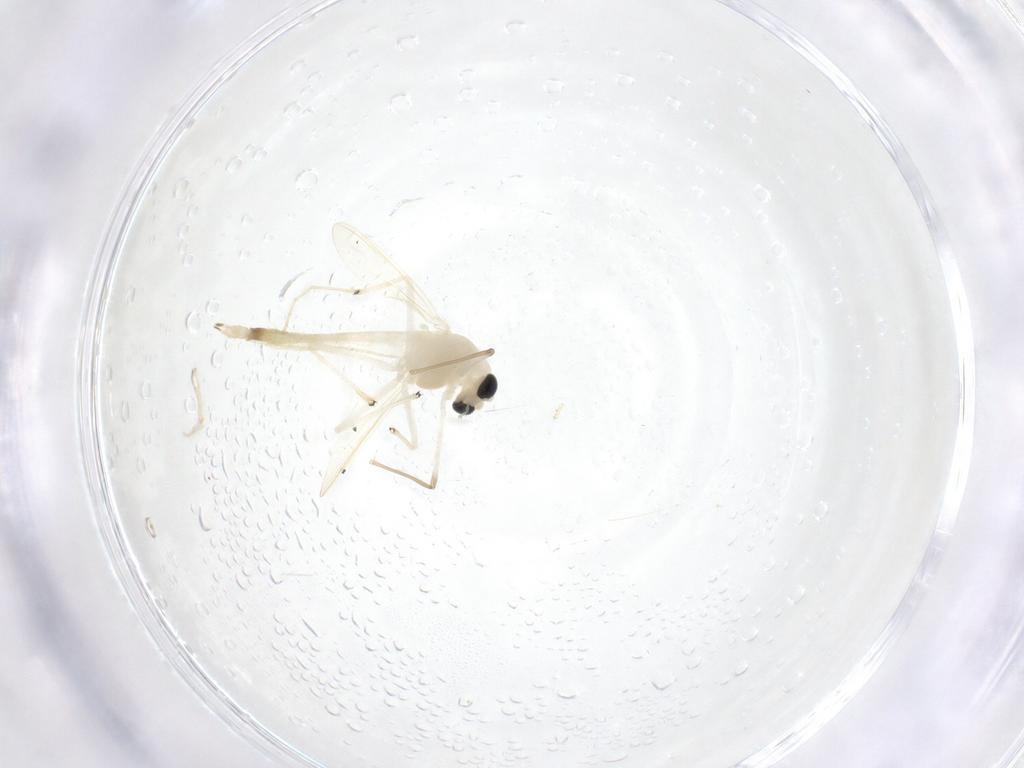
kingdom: Animalia
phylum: Arthropoda
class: Insecta
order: Diptera
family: Chironomidae
